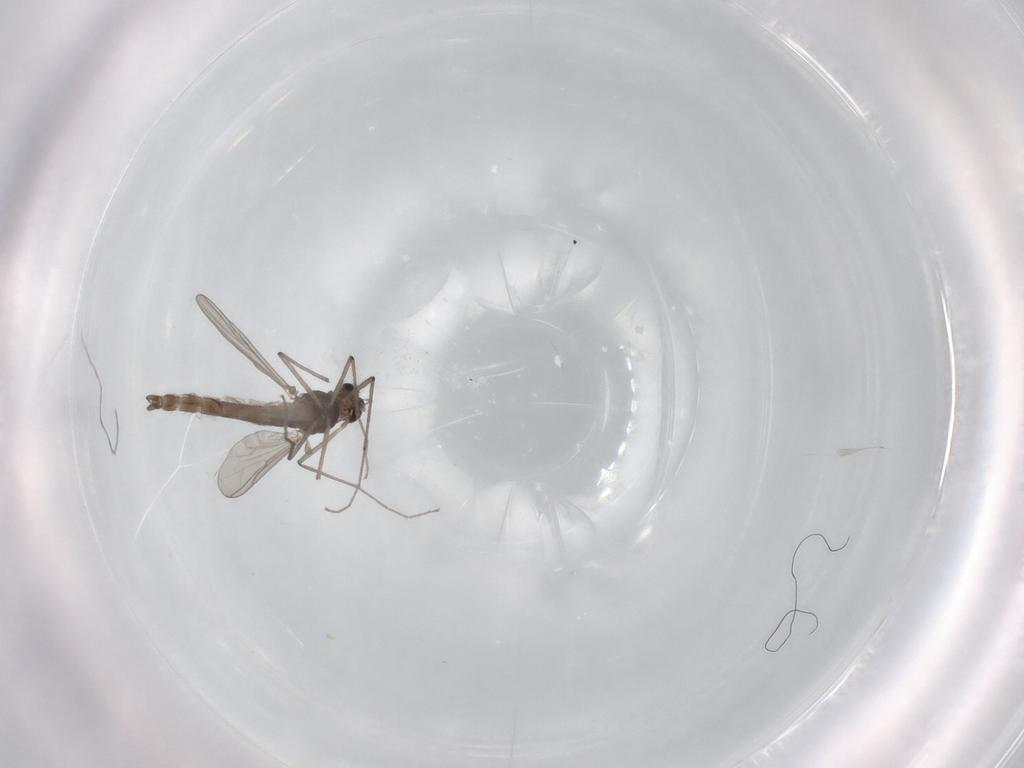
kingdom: Animalia
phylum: Arthropoda
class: Insecta
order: Diptera
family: Chironomidae
